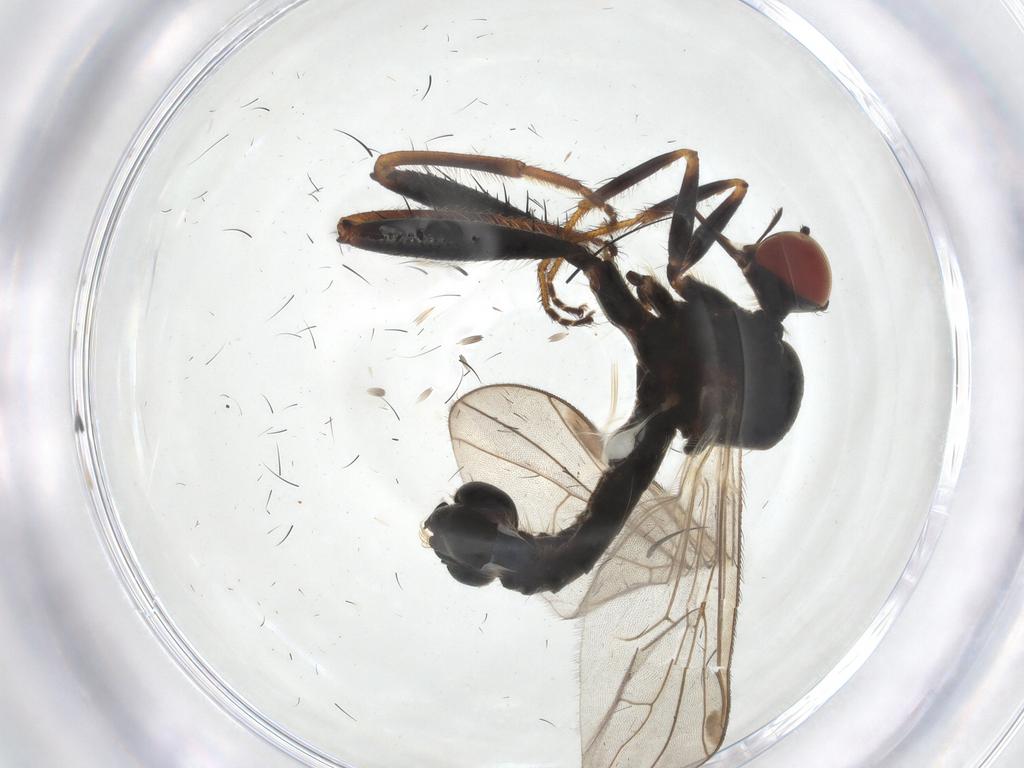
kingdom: Animalia
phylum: Arthropoda
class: Insecta
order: Diptera
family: Hybotidae
